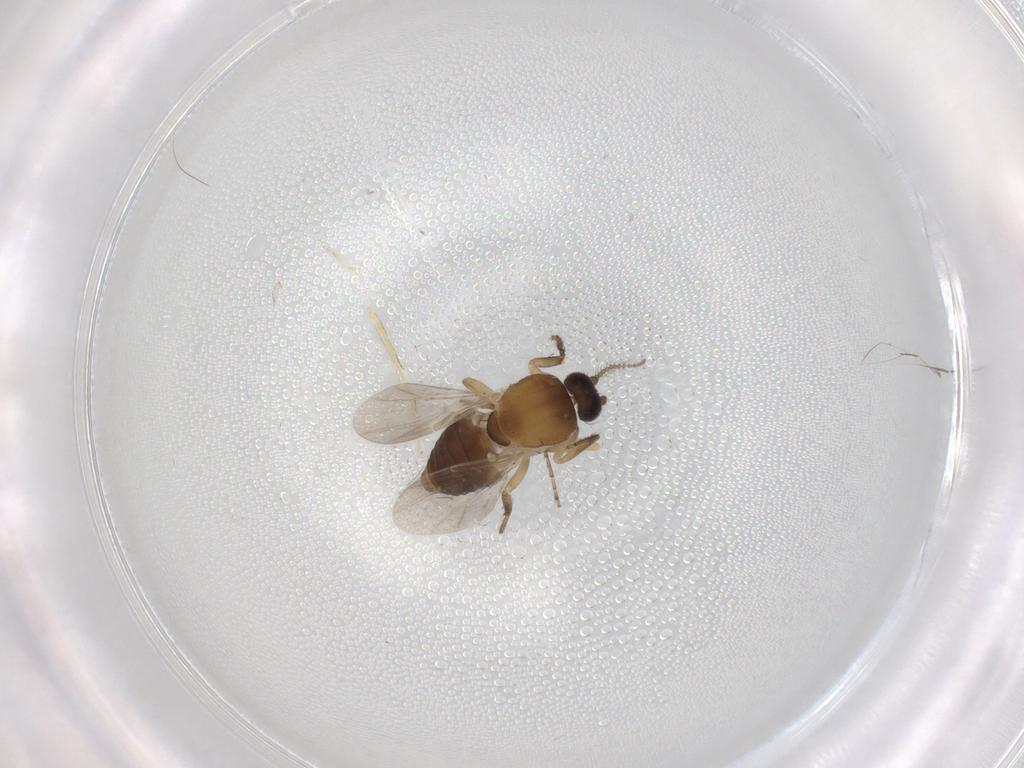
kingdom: Animalia
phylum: Arthropoda
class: Insecta
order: Diptera
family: Ceratopogonidae
